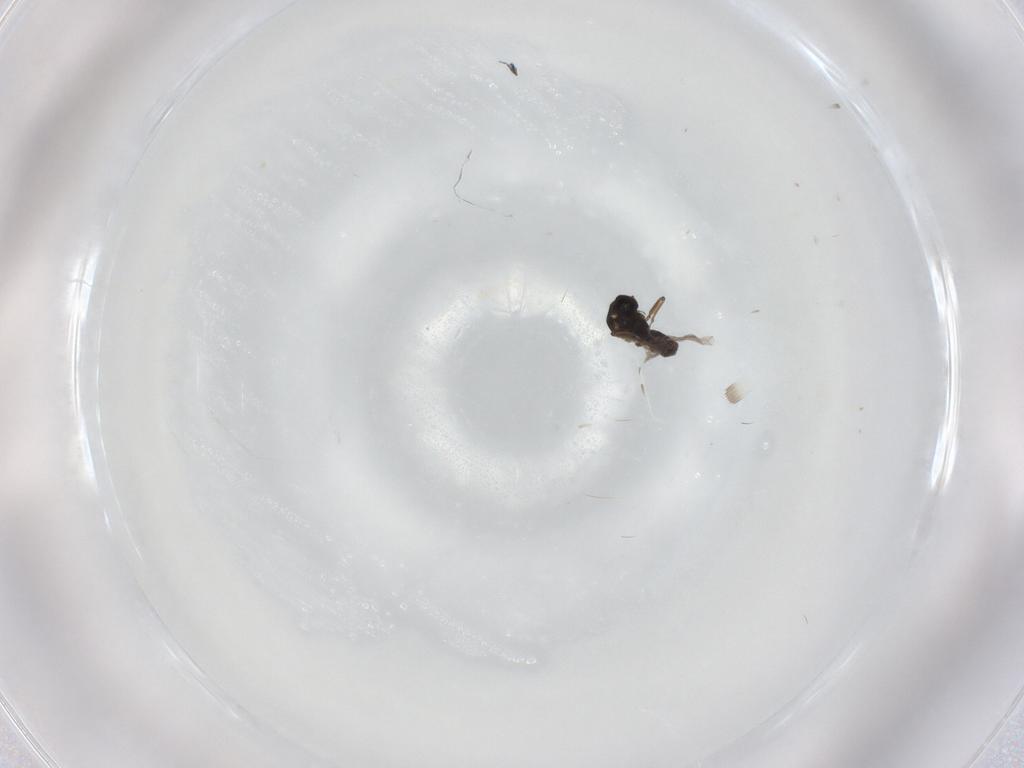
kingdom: Animalia
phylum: Arthropoda
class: Insecta
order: Diptera
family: Ceratopogonidae
